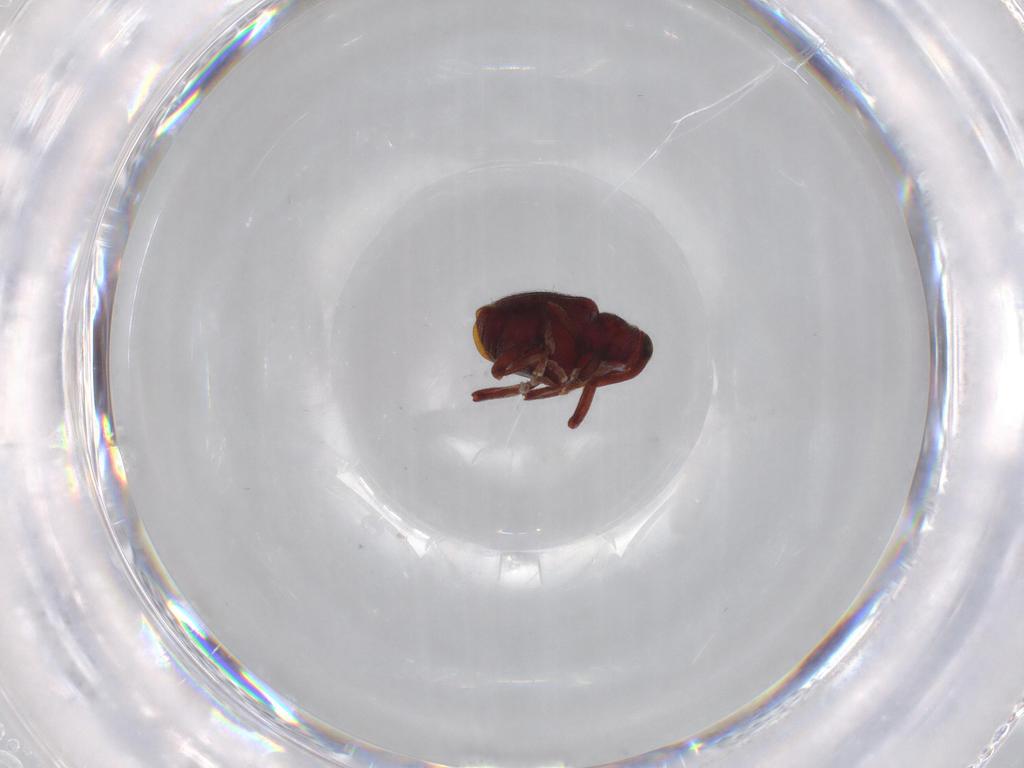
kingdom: Animalia
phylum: Arthropoda
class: Insecta
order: Coleoptera
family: Curculionidae
